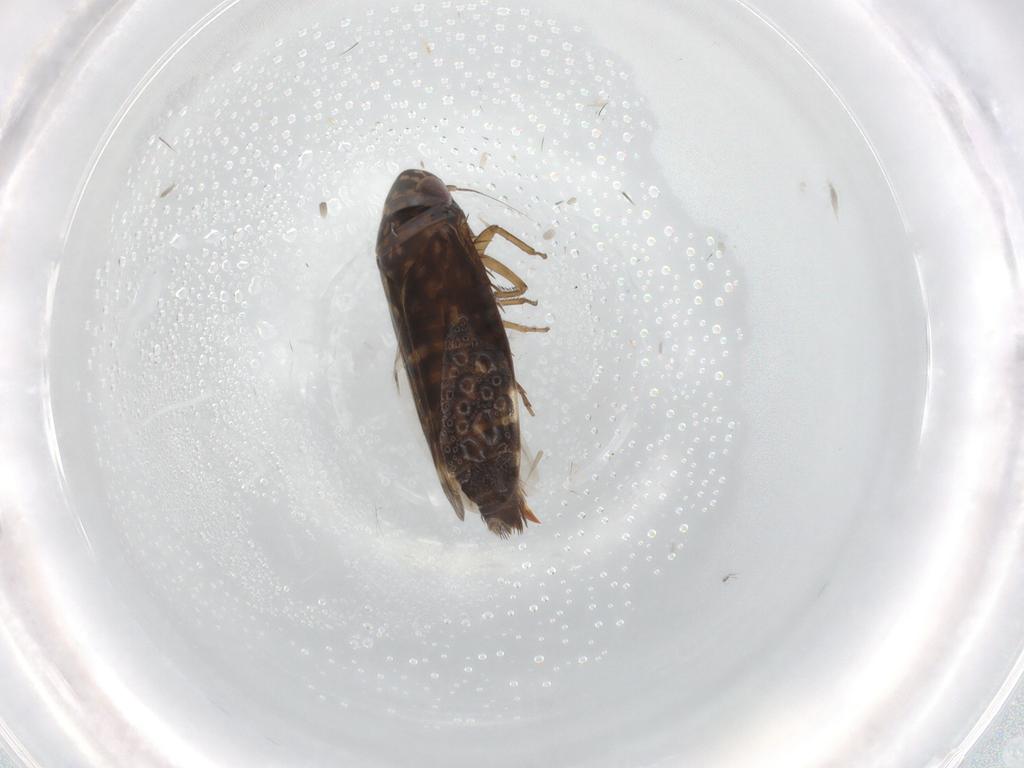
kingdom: Animalia
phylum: Arthropoda
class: Insecta
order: Hemiptera
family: Cicadellidae
